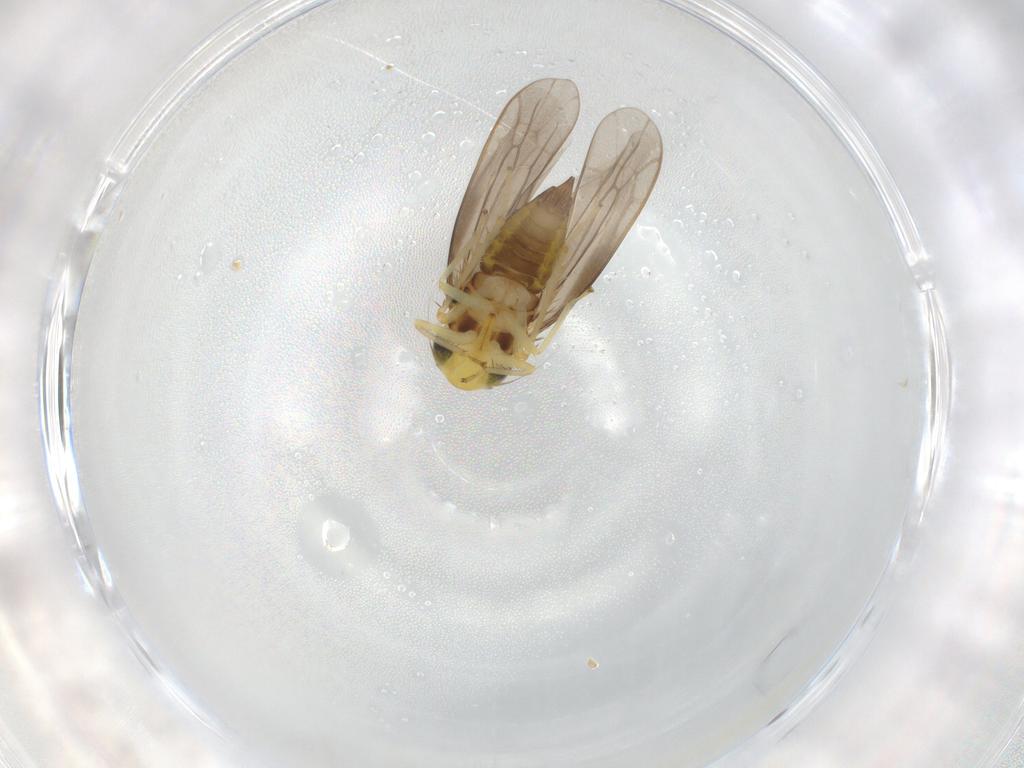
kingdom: Animalia
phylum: Arthropoda
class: Insecta
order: Hemiptera
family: Cicadellidae
